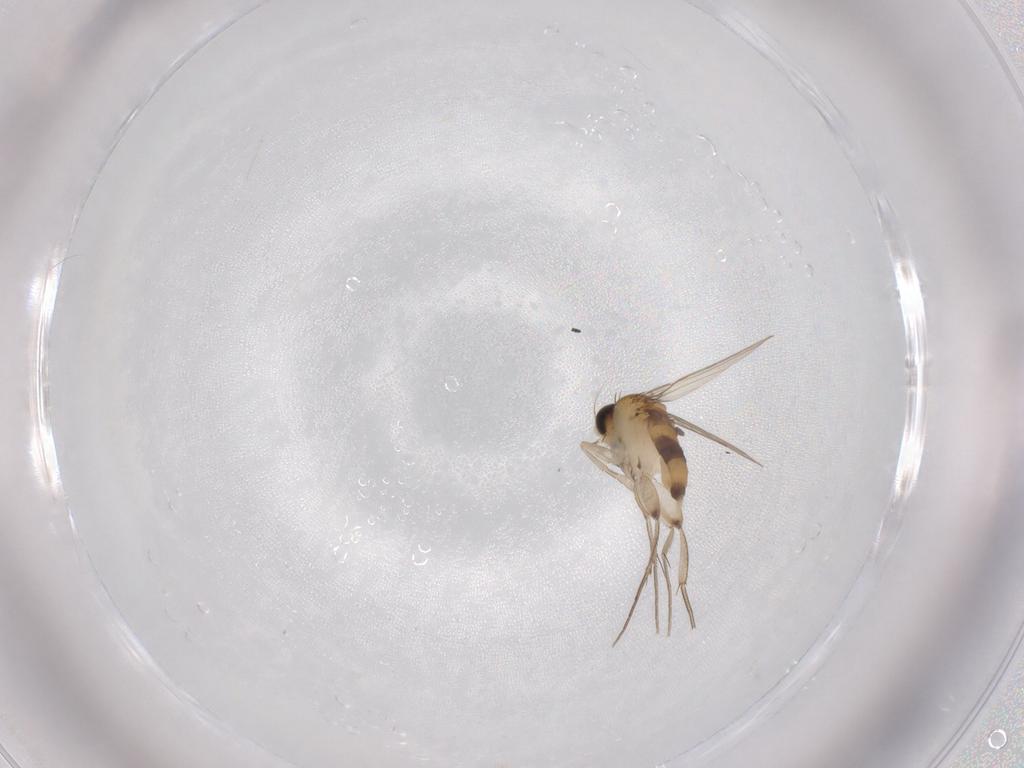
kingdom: Animalia
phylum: Arthropoda
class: Insecta
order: Diptera
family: Phoridae
